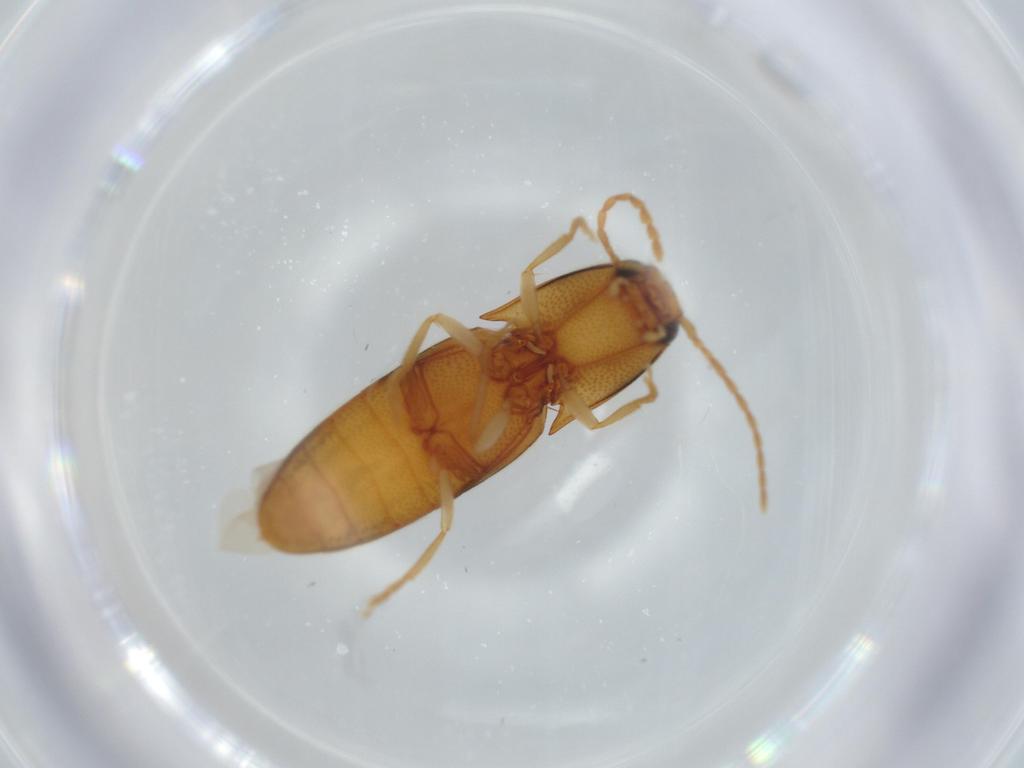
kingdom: Animalia
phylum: Arthropoda
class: Insecta
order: Coleoptera
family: Elateridae
